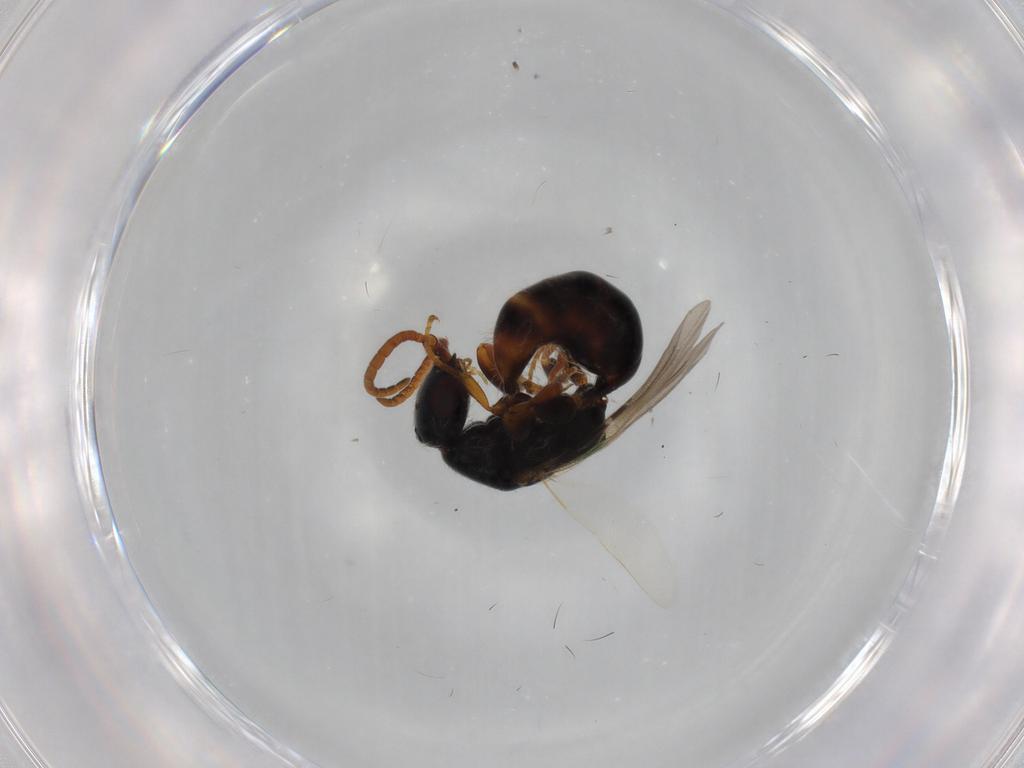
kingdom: Animalia
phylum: Arthropoda
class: Insecta
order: Hymenoptera
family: Bethylidae
